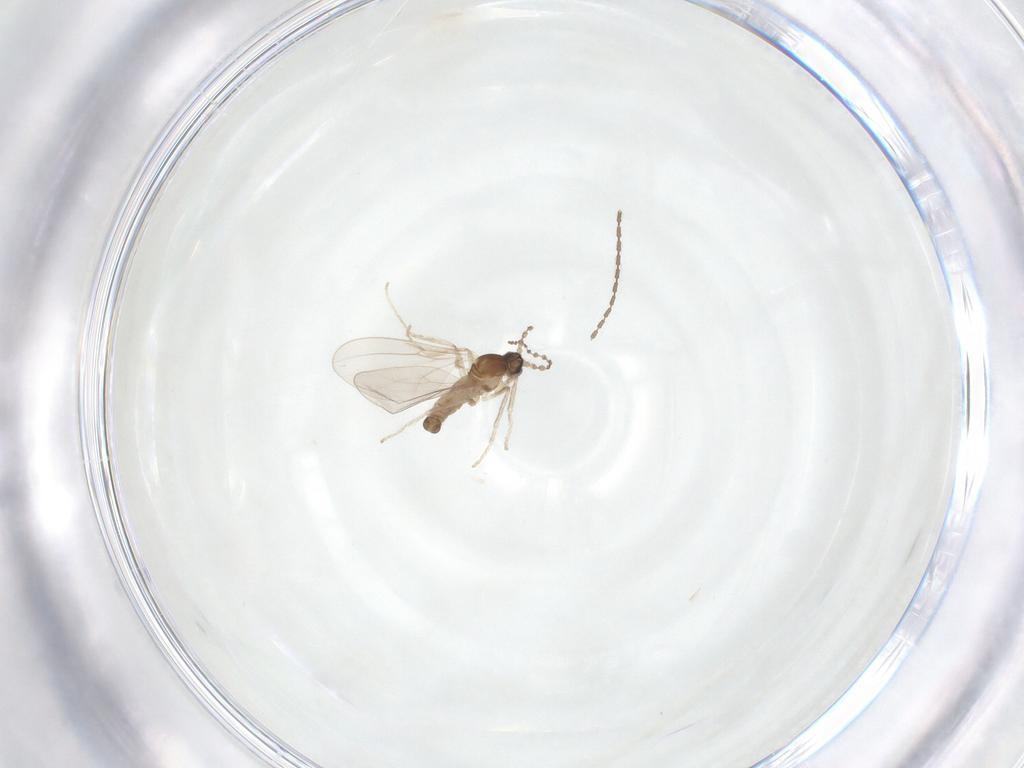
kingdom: Animalia
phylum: Arthropoda
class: Insecta
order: Diptera
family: Cecidomyiidae
